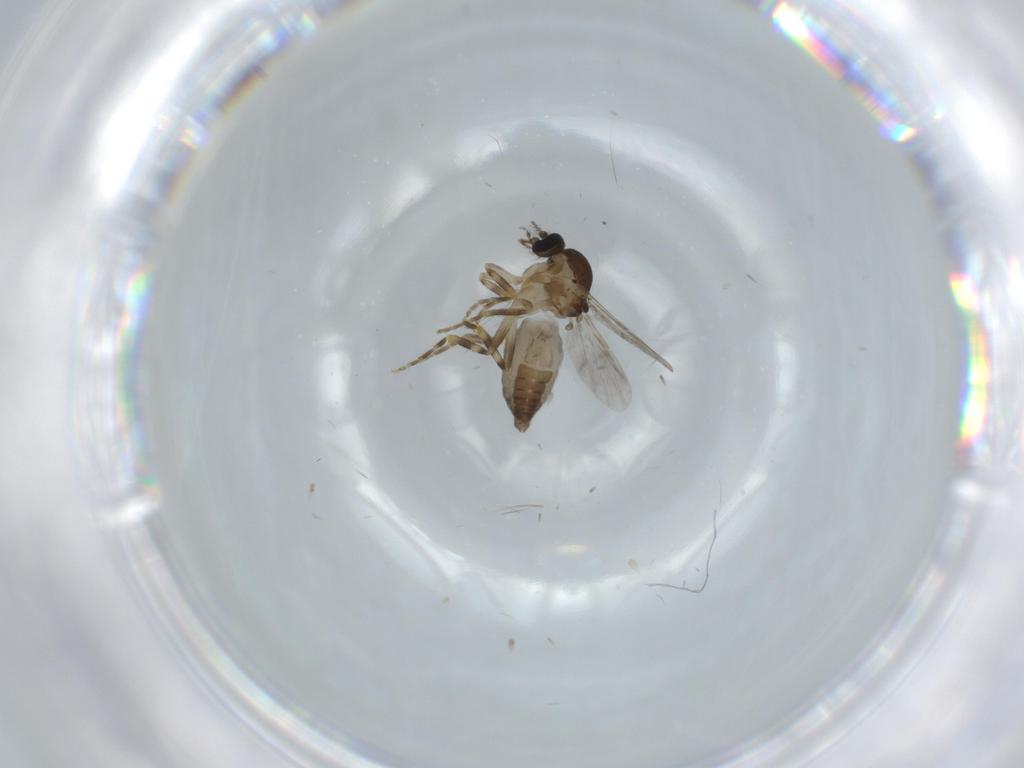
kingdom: Animalia
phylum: Arthropoda
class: Insecta
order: Diptera
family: Ceratopogonidae
